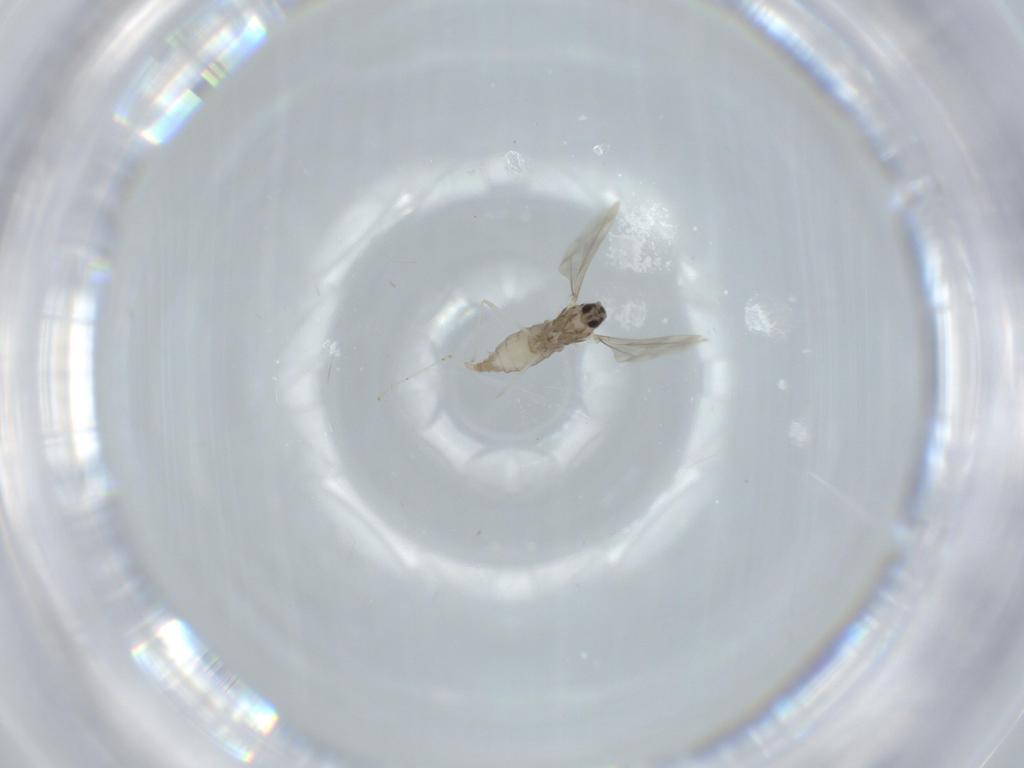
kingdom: Animalia
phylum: Arthropoda
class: Insecta
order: Diptera
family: Cecidomyiidae
